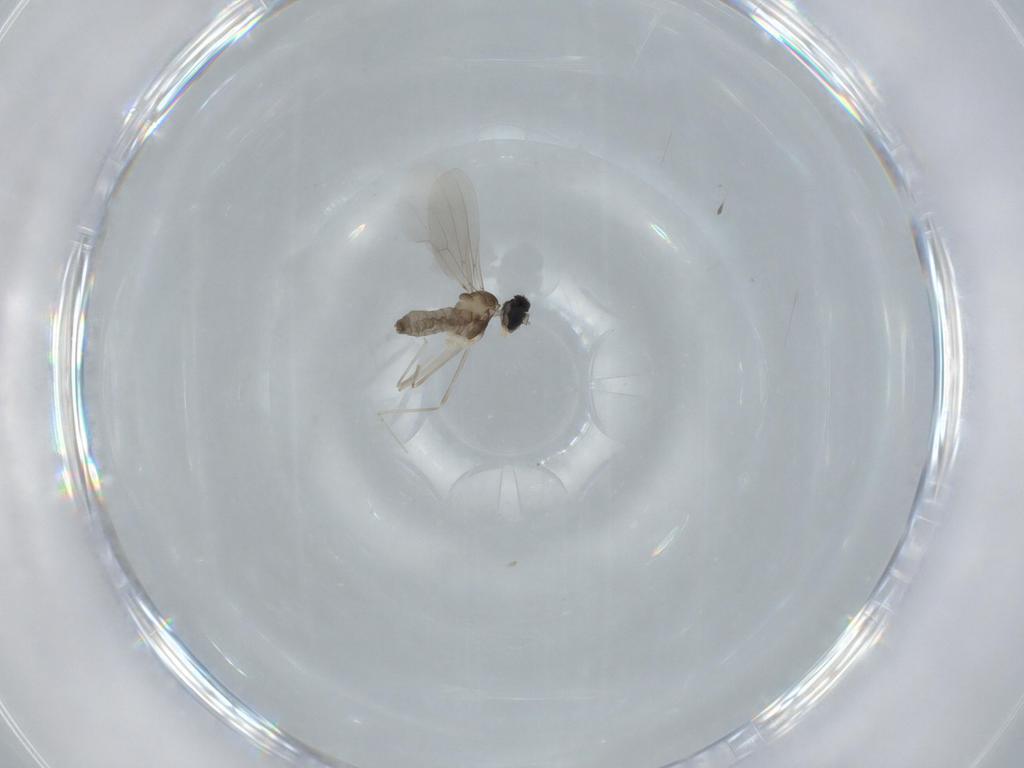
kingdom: Animalia
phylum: Arthropoda
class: Insecta
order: Diptera
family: Cecidomyiidae
